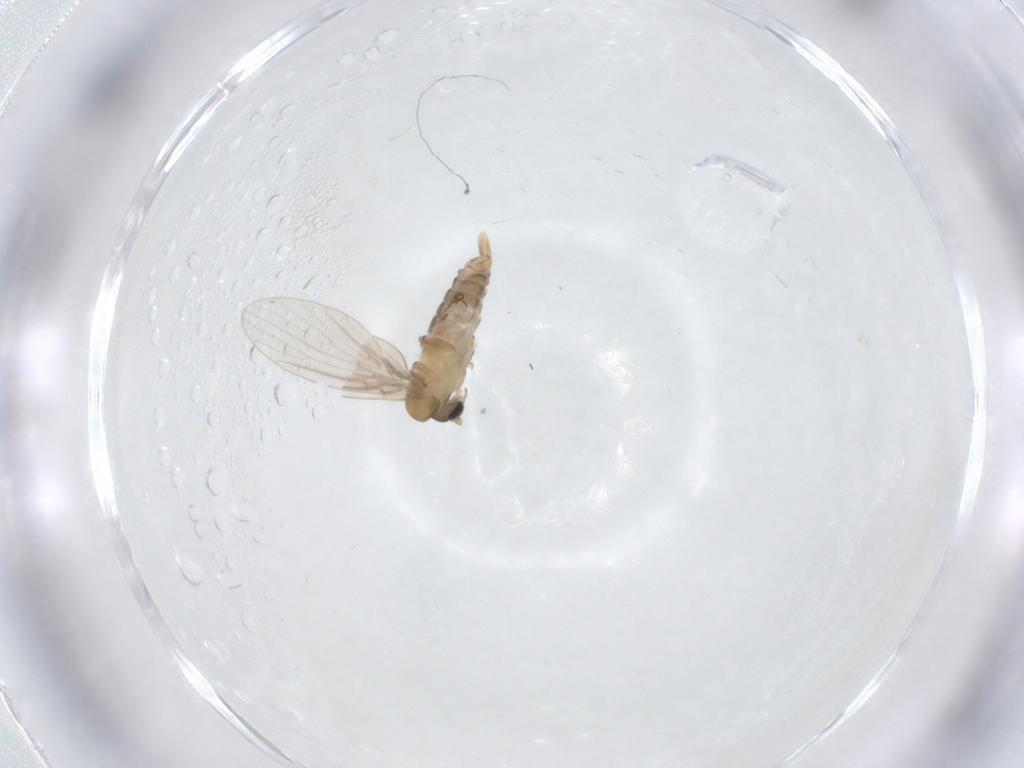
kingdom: Animalia
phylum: Arthropoda
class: Insecta
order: Diptera
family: Psychodidae
